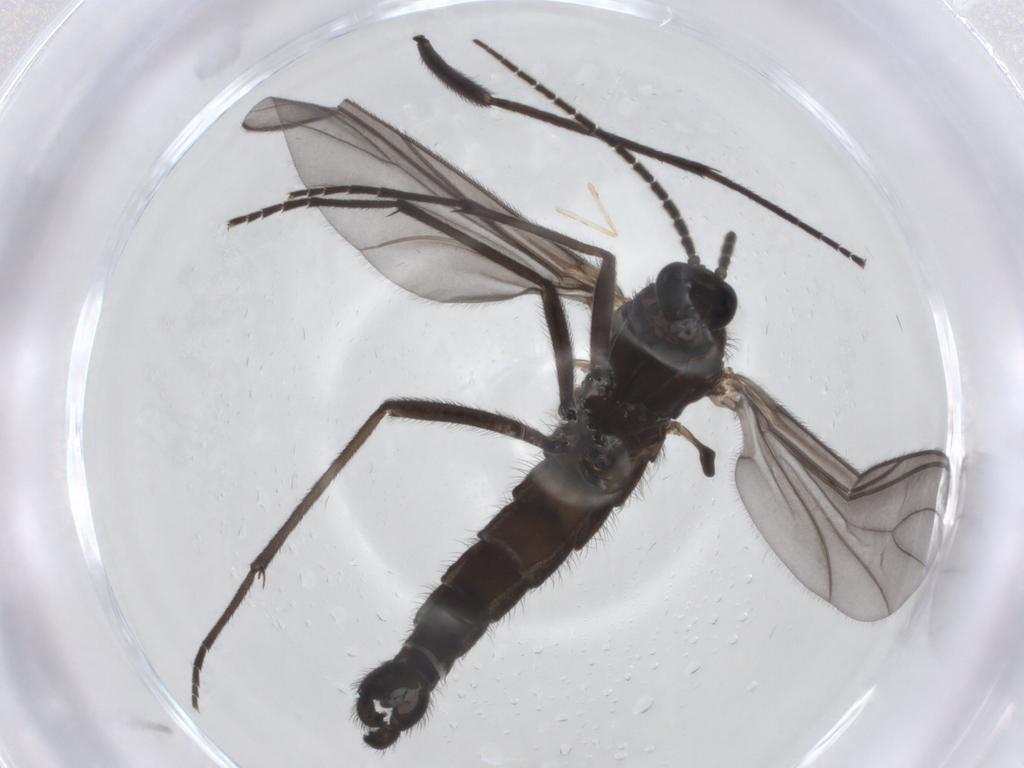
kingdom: Animalia
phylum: Arthropoda
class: Insecta
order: Diptera
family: Cecidomyiidae
